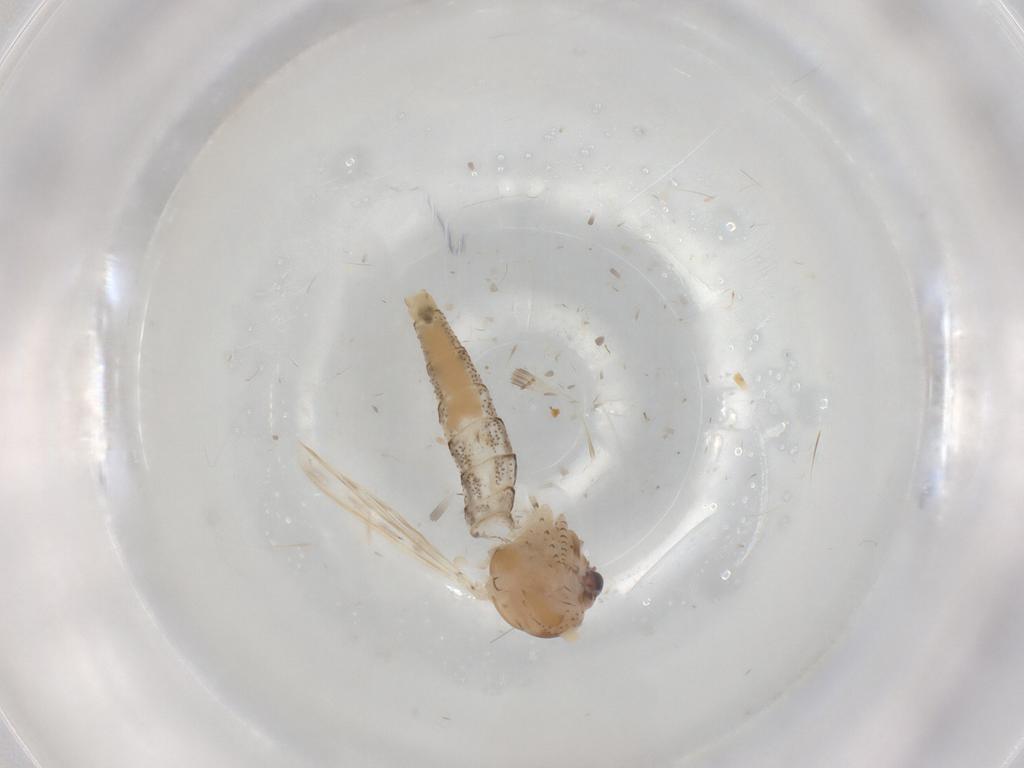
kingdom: Animalia
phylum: Arthropoda
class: Insecta
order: Diptera
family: Chaoboridae
